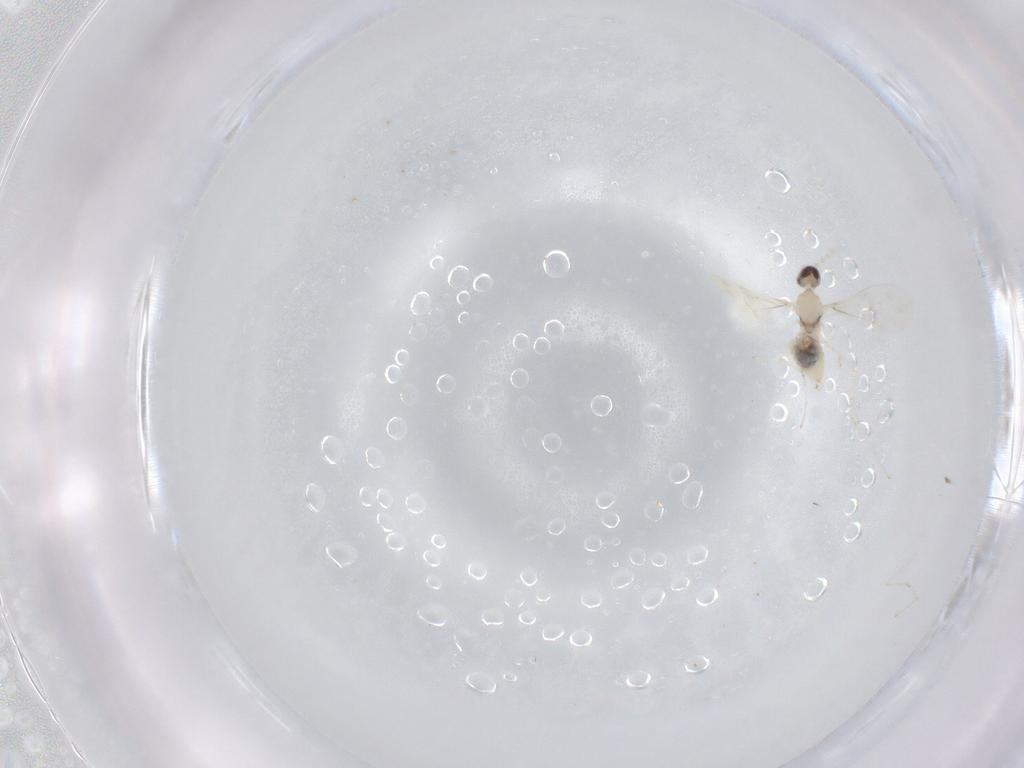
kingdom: Animalia
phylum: Arthropoda
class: Insecta
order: Diptera
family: Cecidomyiidae
